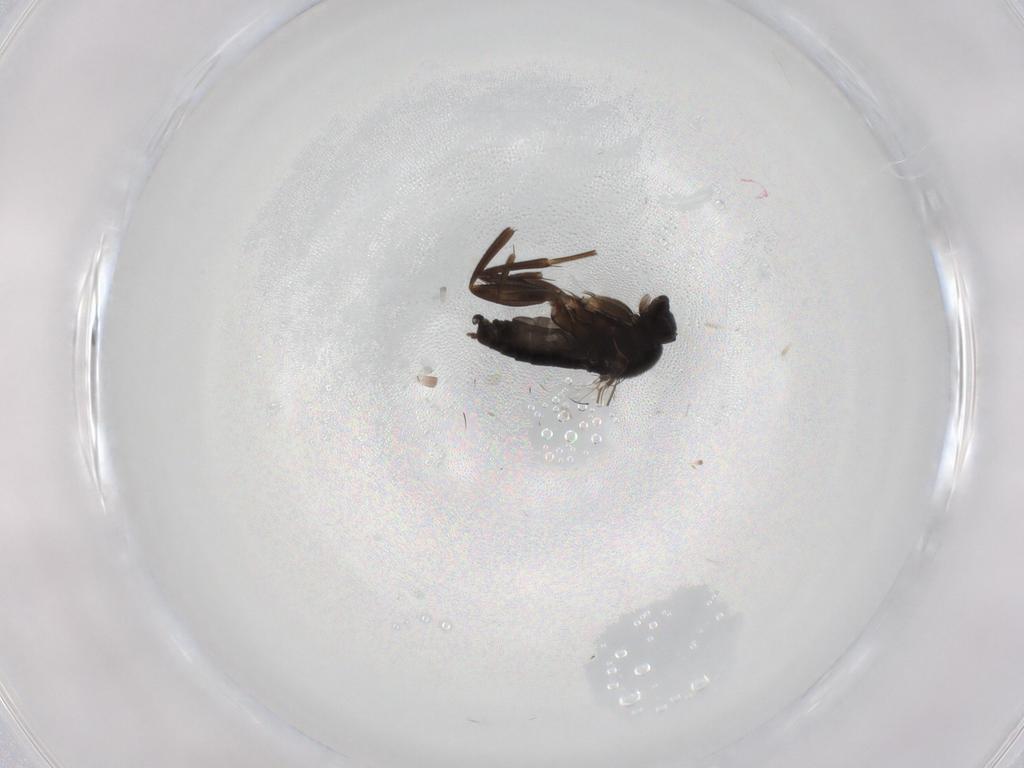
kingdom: Animalia
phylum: Arthropoda
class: Insecta
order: Diptera
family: Phoridae
